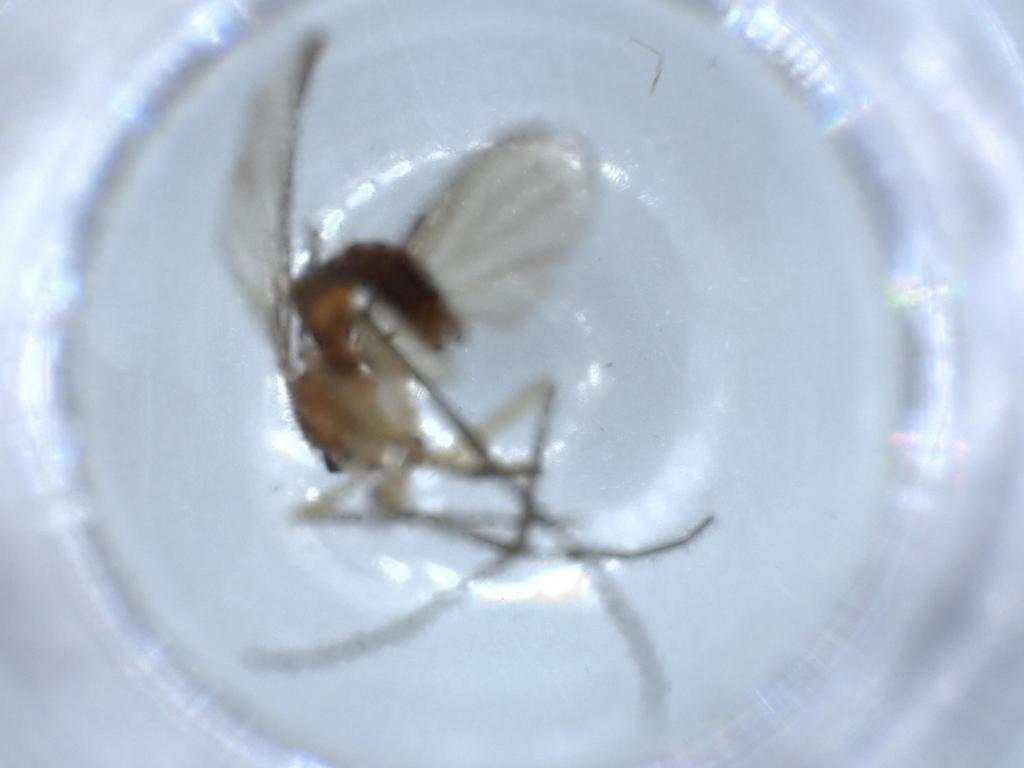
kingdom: Animalia
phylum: Arthropoda
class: Insecta
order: Diptera
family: Keroplatidae
